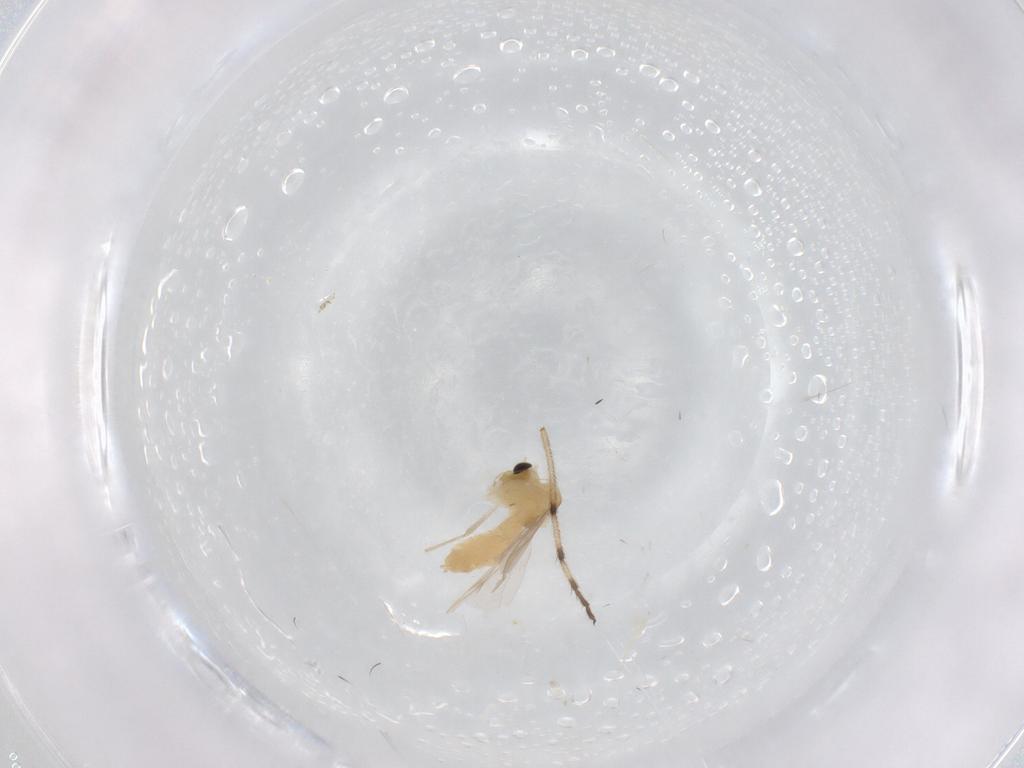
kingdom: Animalia
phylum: Arthropoda
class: Insecta
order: Diptera
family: Chironomidae
